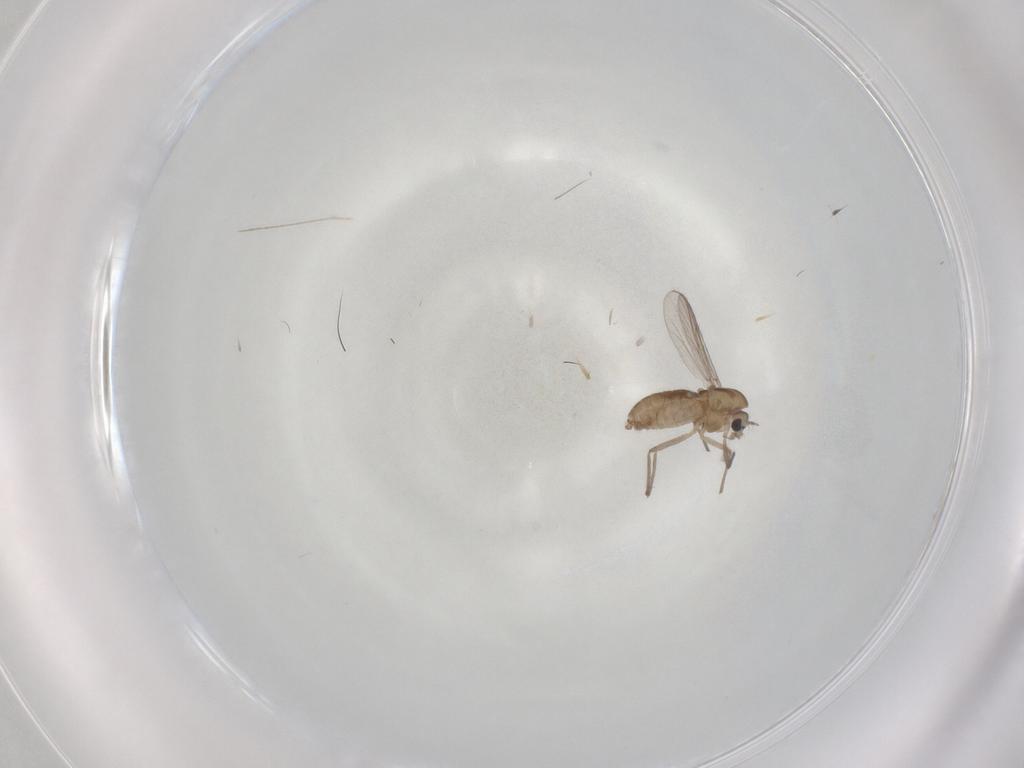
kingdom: Animalia
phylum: Arthropoda
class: Insecta
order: Diptera
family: Chironomidae
